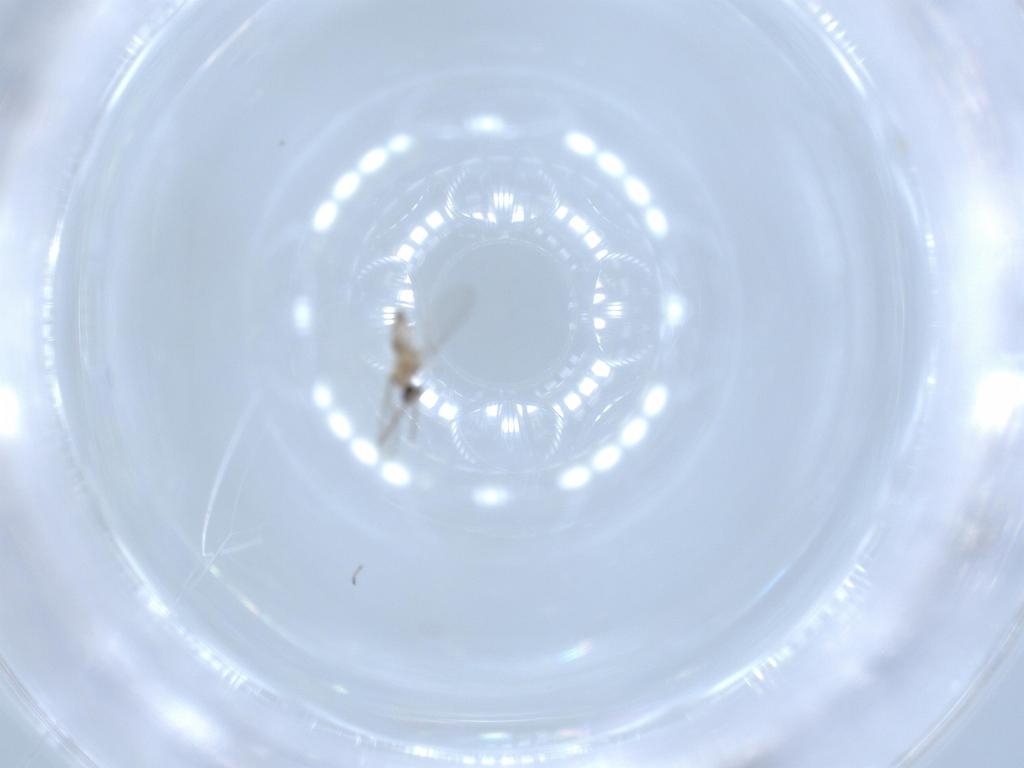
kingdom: Animalia
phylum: Arthropoda
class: Insecta
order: Diptera
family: Cecidomyiidae
